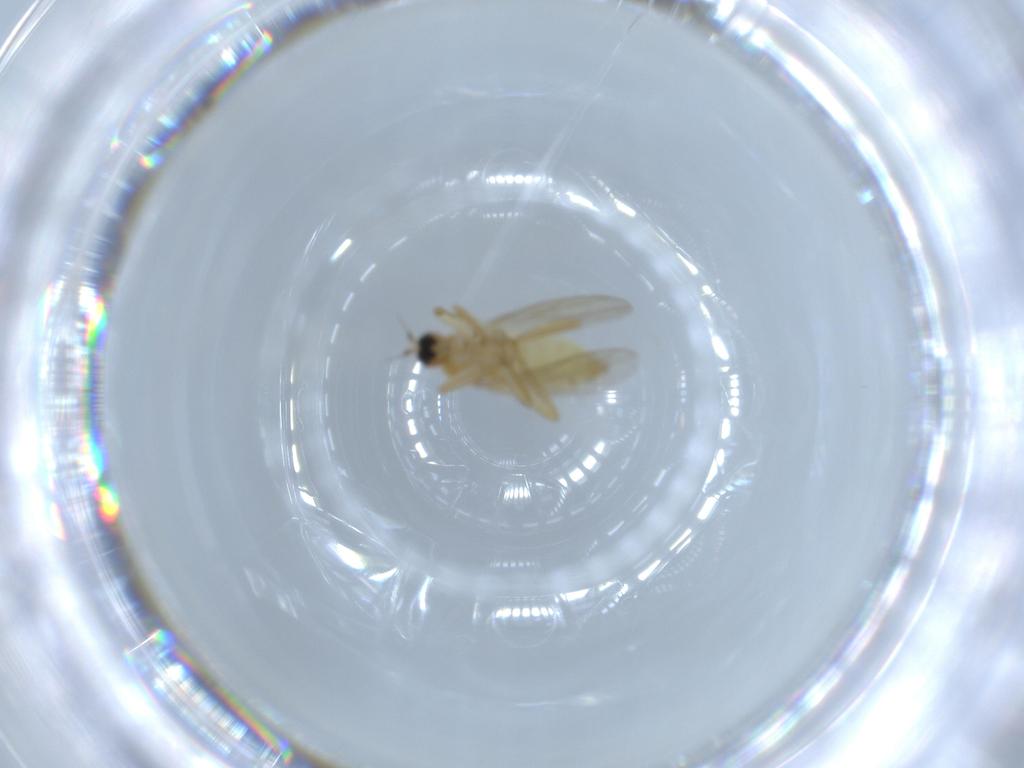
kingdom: Animalia
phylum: Arthropoda
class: Insecta
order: Diptera
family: Hybotidae
